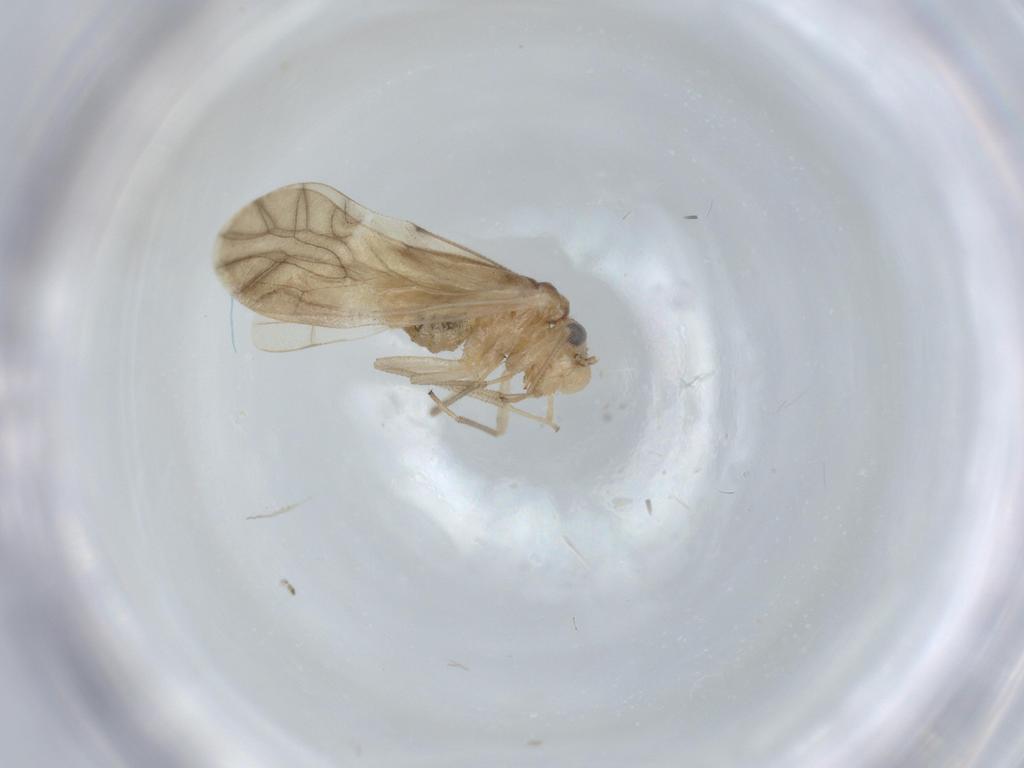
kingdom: Animalia
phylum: Arthropoda
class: Insecta
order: Psocodea
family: Caeciliusidae
